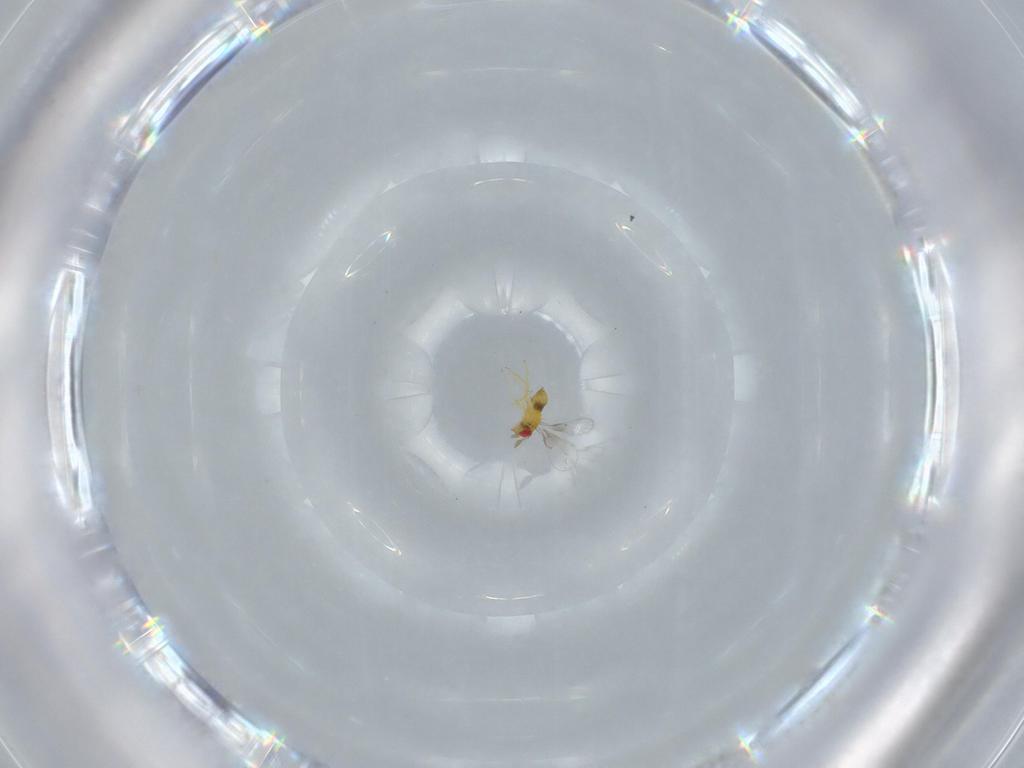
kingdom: Animalia
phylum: Arthropoda
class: Insecta
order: Hymenoptera
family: Trichogrammatidae
